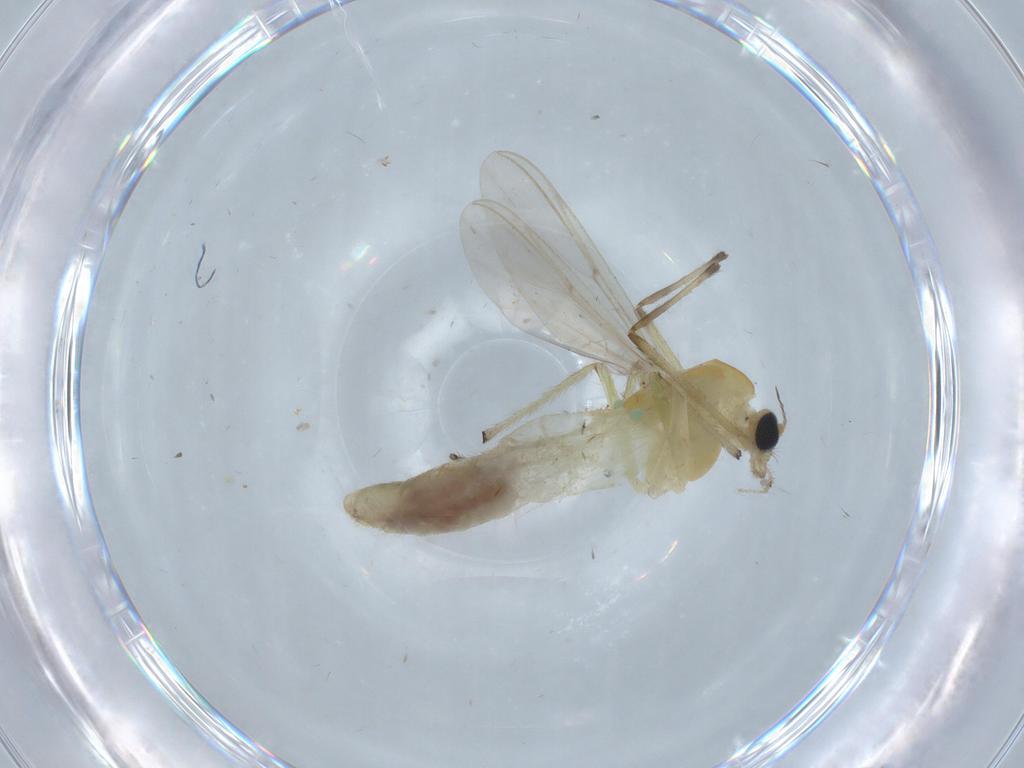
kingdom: Animalia
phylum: Arthropoda
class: Insecta
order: Diptera
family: Chironomidae
